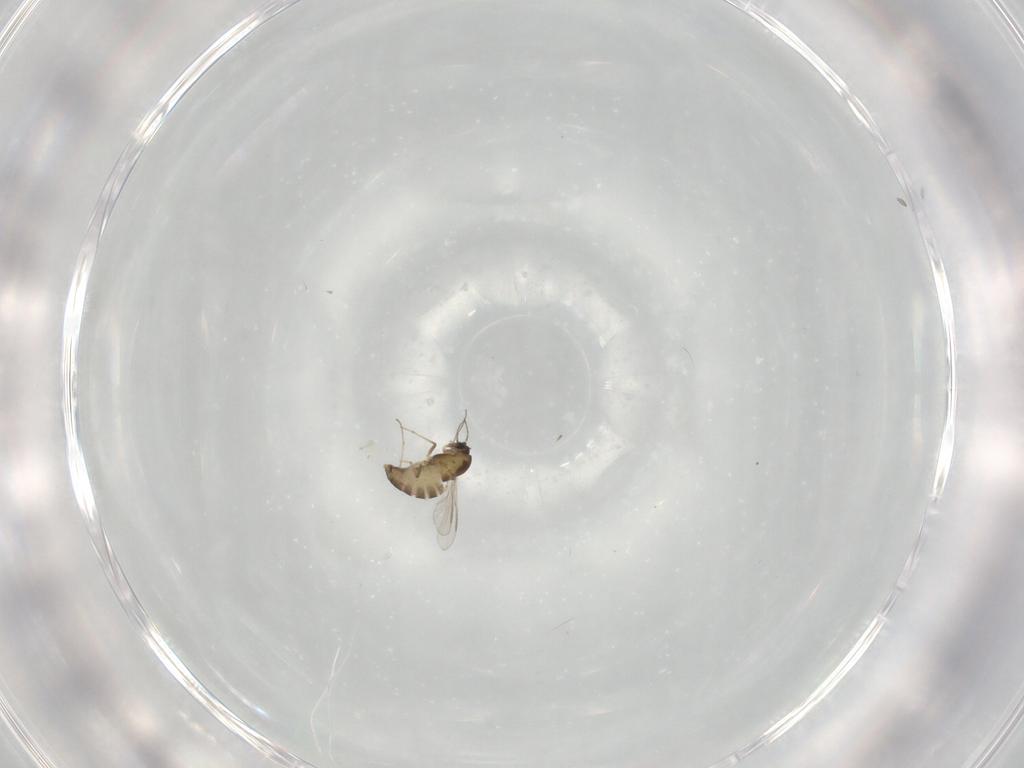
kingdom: Animalia
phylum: Arthropoda
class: Insecta
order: Diptera
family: Chironomidae
